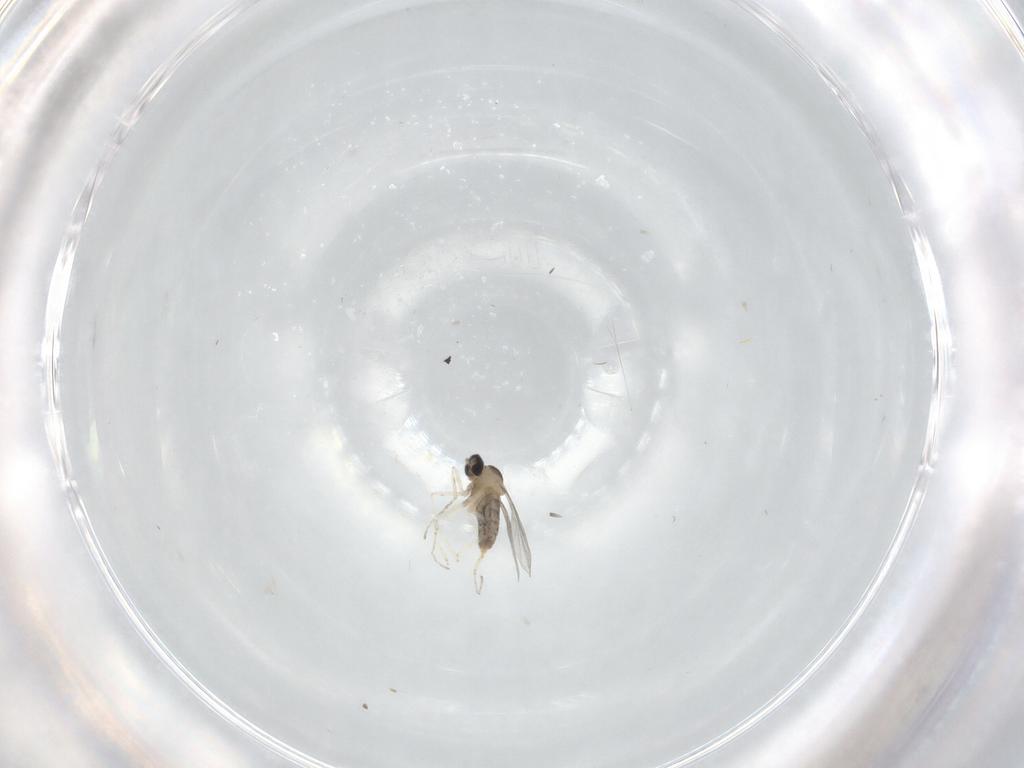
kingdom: Animalia
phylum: Arthropoda
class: Insecta
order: Diptera
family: Cecidomyiidae
